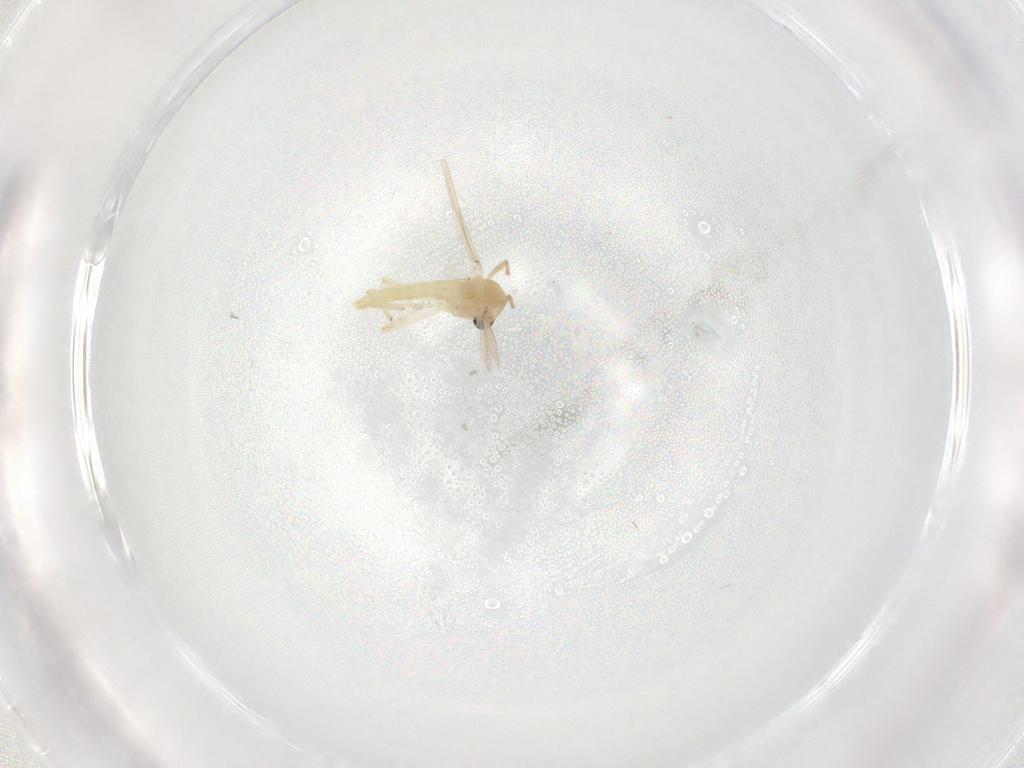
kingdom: Animalia
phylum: Arthropoda
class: Insecta
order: Diptera
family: Chironomidae
